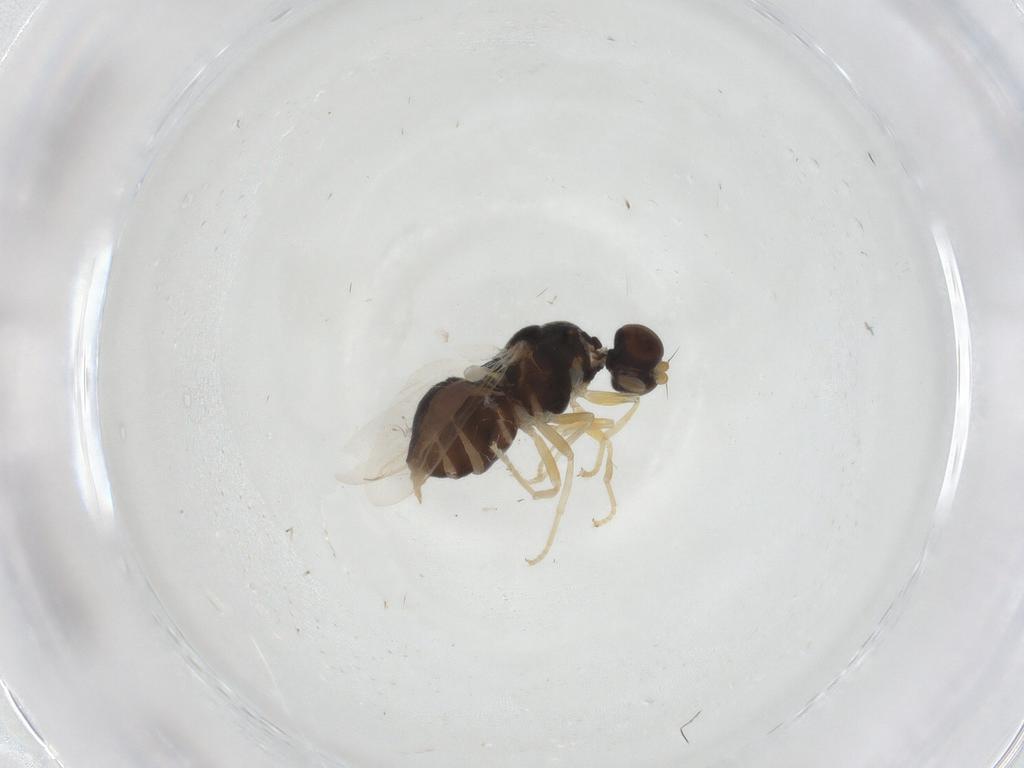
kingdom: Animalia
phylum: Arthropoda
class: Insecta
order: Diptera
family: Stratiomyidae
